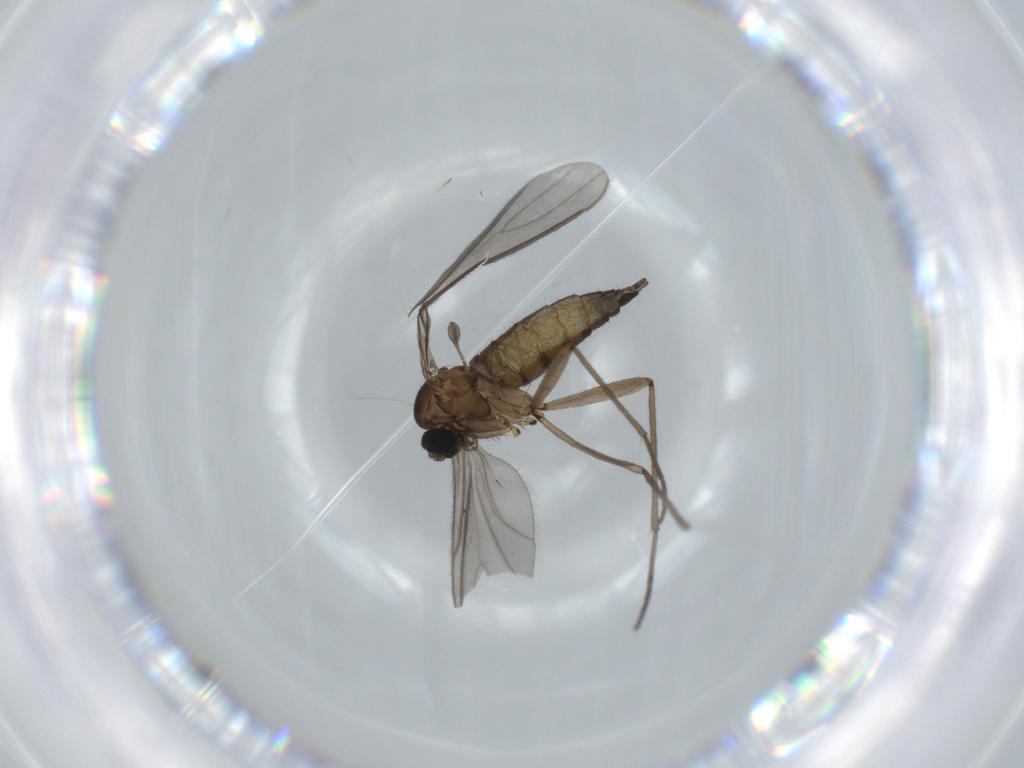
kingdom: Animalia
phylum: Arthropoda
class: Insecta
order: Diptera
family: Sciaridae
